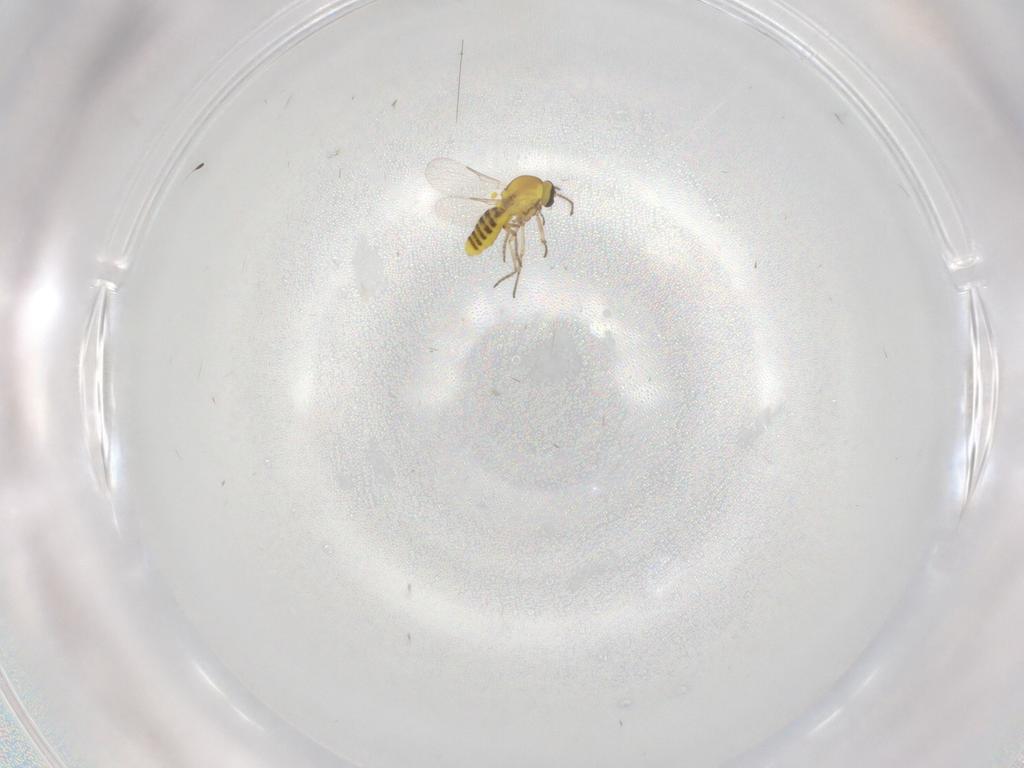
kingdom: Animalia
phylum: Arthropoda
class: Insecta
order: Diptera
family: Ceratopogonidae
